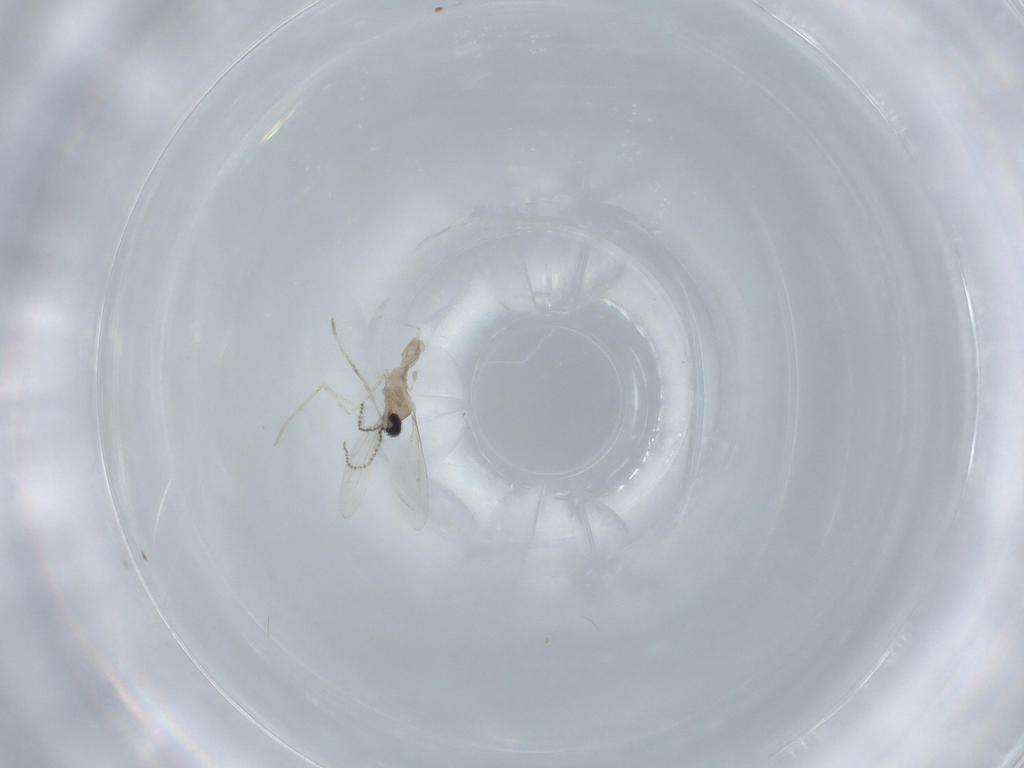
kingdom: Animalia
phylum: Arthropoda
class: Insecta
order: Diptera
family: Cecidomyiidae
